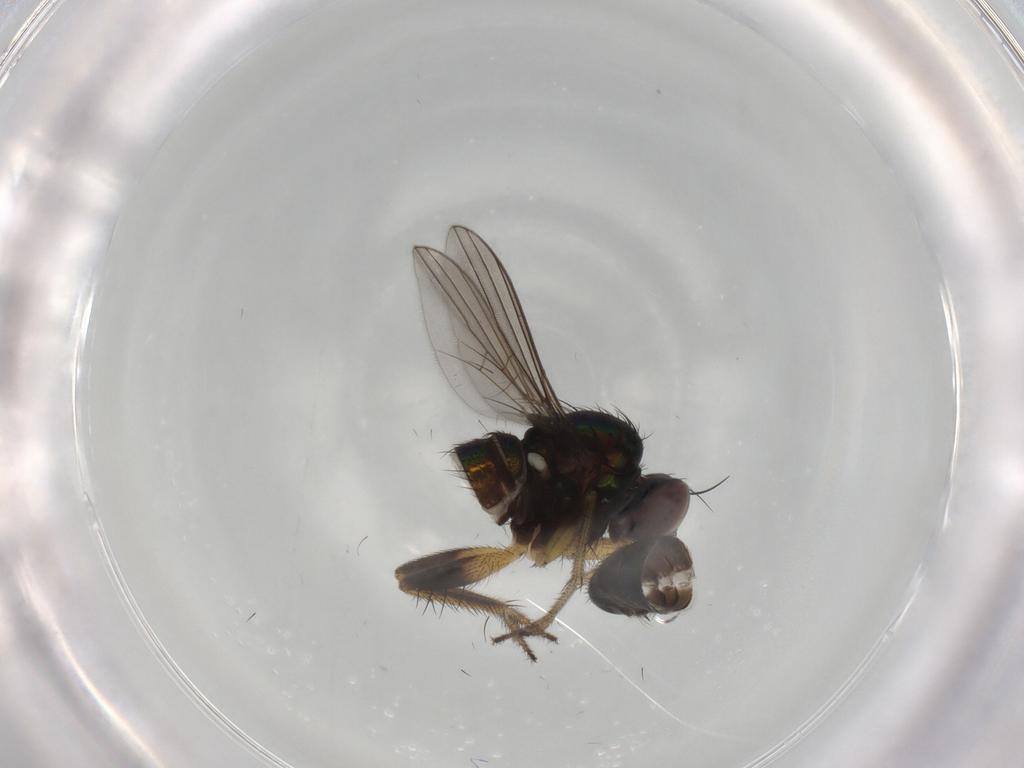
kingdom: Animalia
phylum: Arthropoda
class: Insecta
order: Diptera
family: Dolichopodidae
